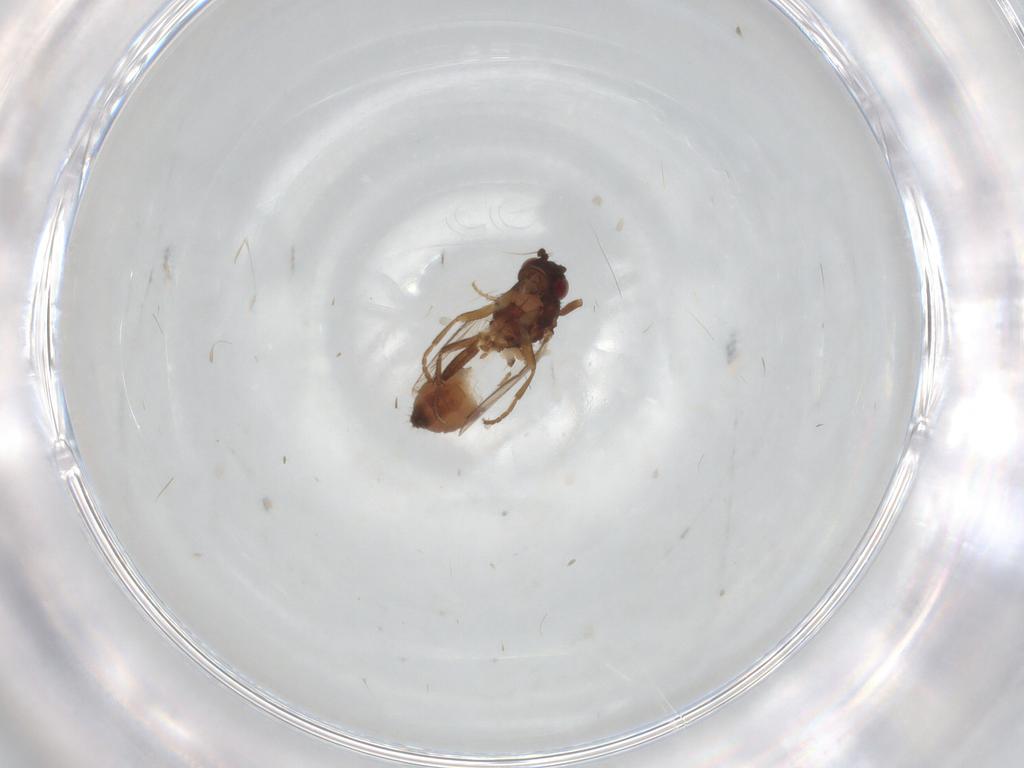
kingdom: Animalia
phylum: Arthropoda
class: Insecta
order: Diptera
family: Sphaeroceridae
